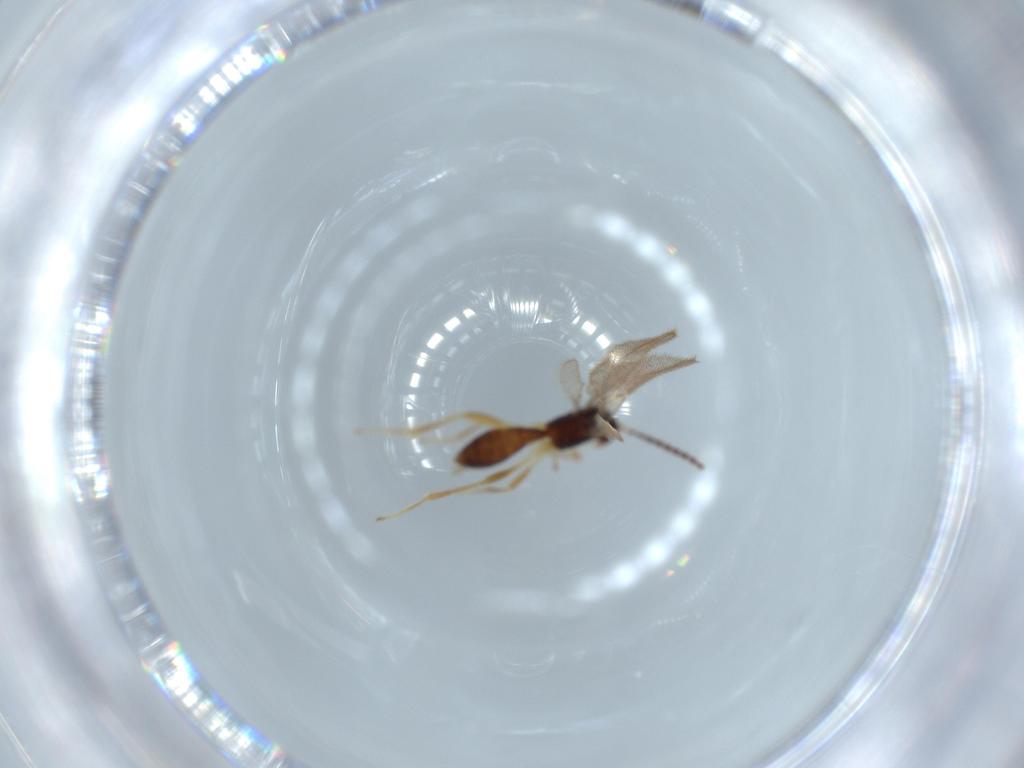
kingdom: Animalia
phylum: Arthropoda
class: Insecta
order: Hymenoptera
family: Braconidae
